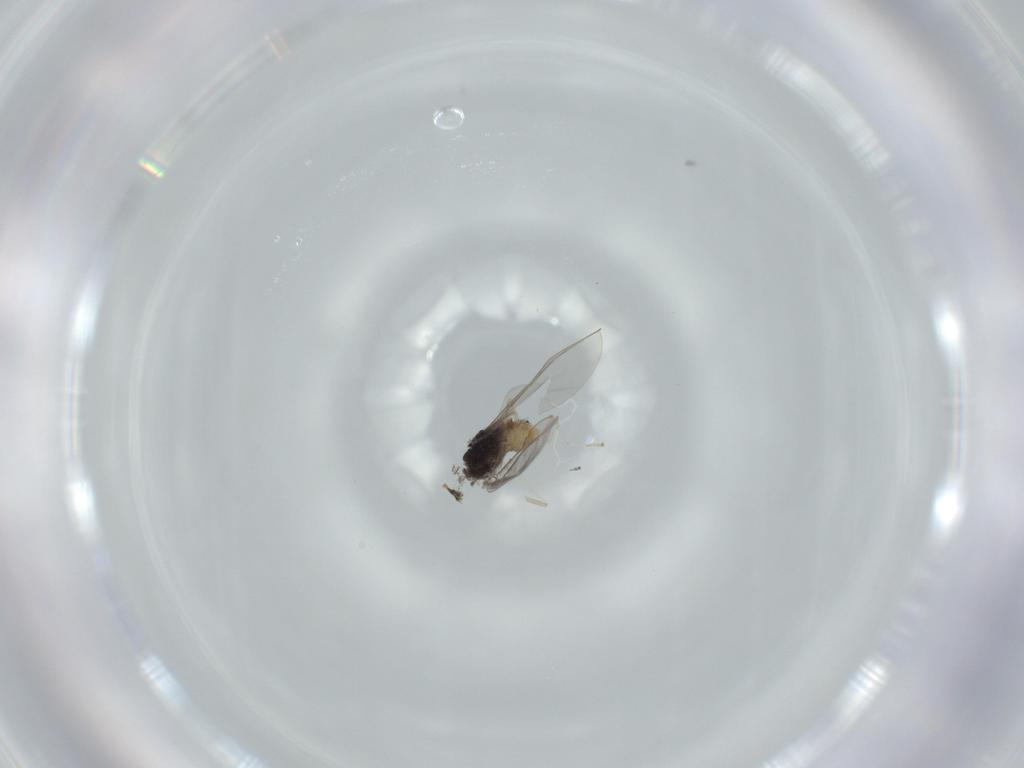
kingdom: Animalia
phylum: Arthropoda
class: Insecta
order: Diptera
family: Cecidomyiidae
